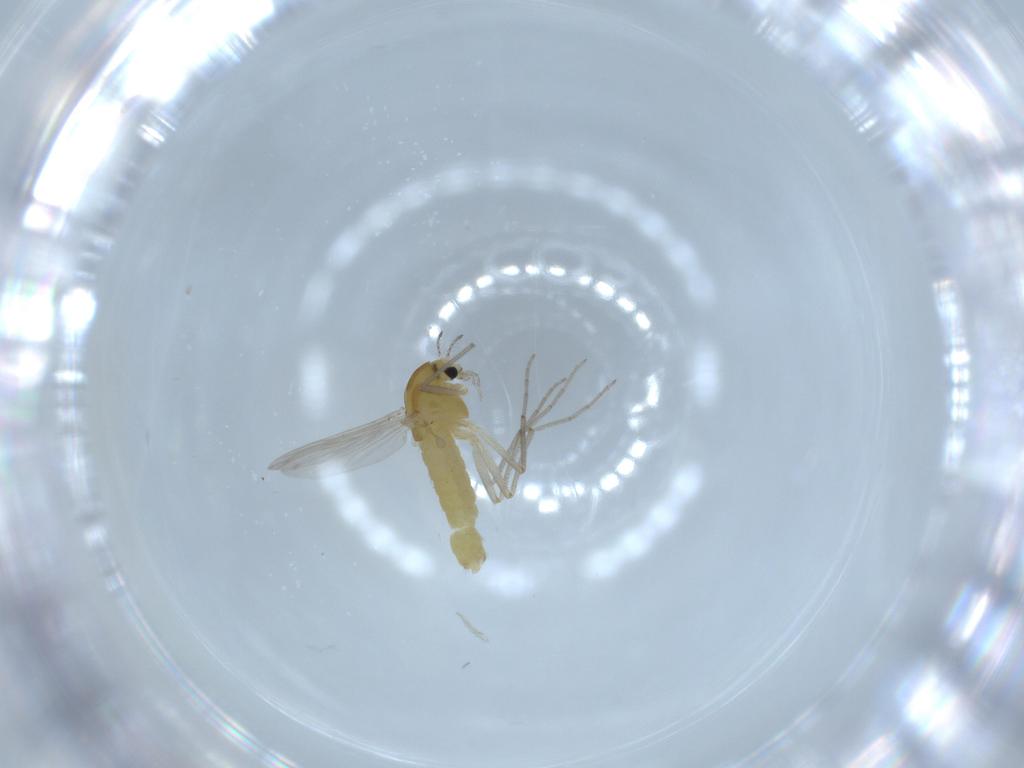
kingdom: Animalia
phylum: Arthropoda
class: Insecta
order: Diptera
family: Chironomidae
